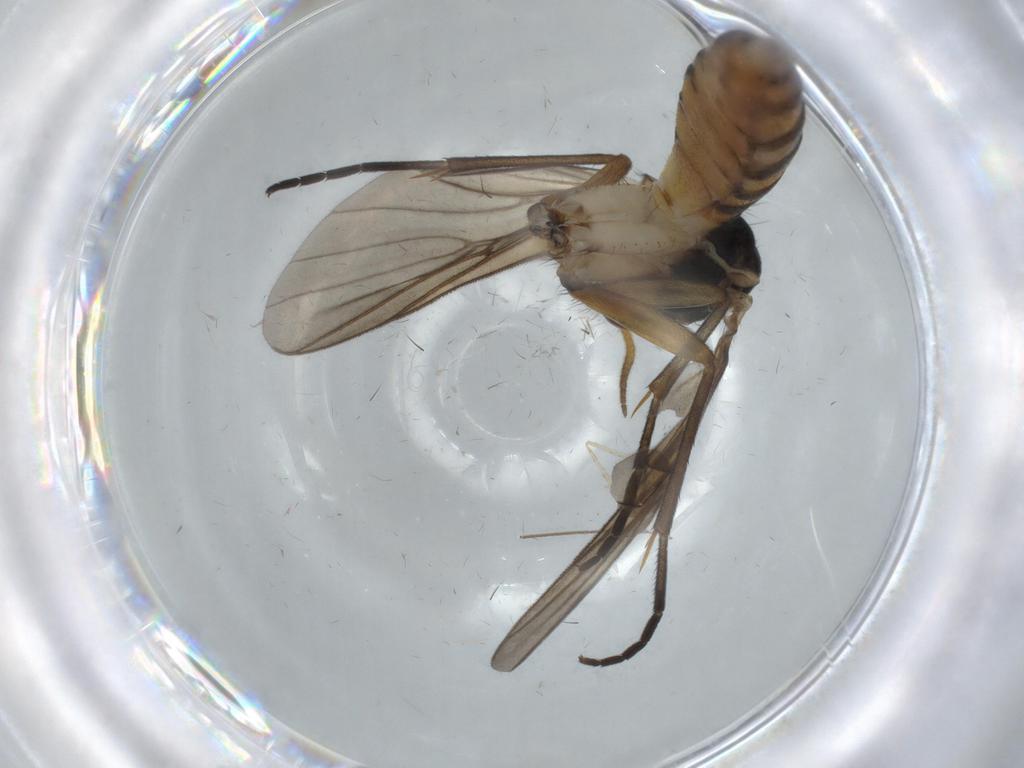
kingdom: Animalia
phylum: Arthropoda
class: Insecta
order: Diptera
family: Cecidomyiidae
